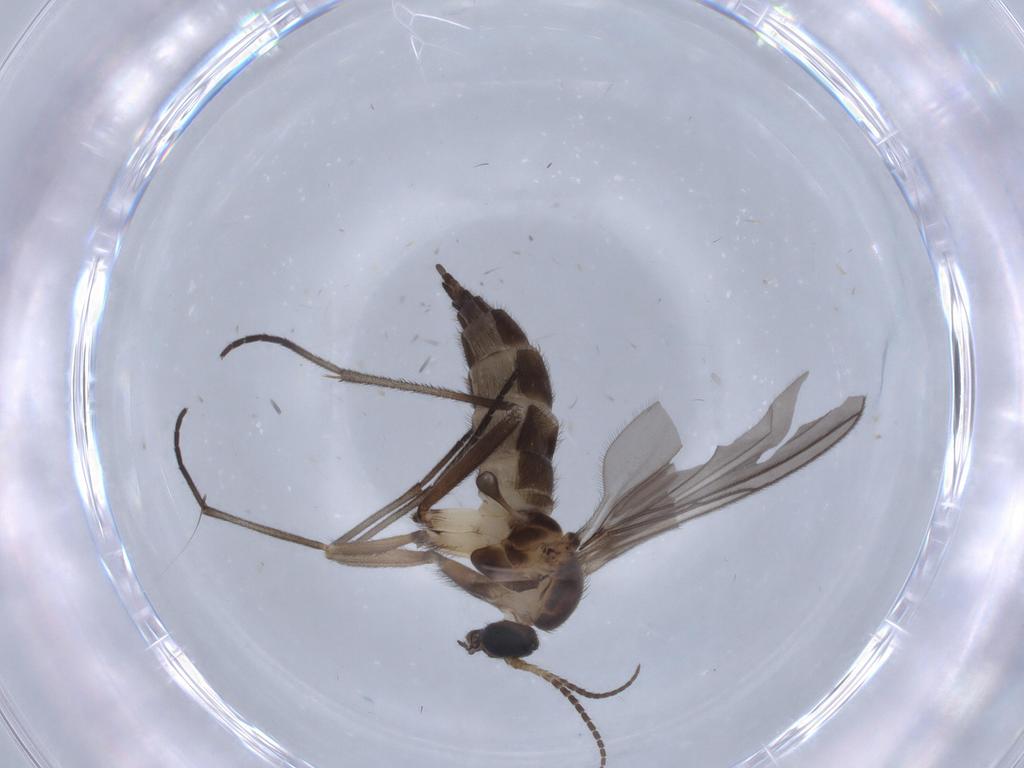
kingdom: Animalia
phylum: Arthropoda
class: Insecta
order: Diptera
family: Sciaridae
